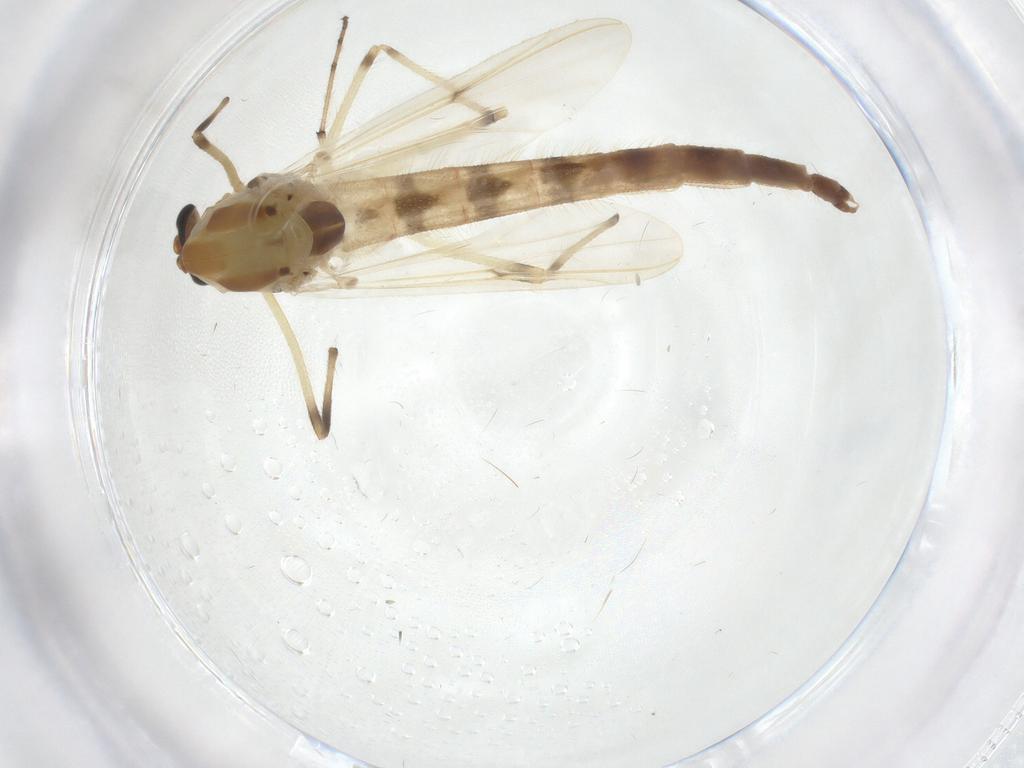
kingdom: Animalia
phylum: Arthropoda
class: Insecta
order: Diptera
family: Chironomidae
